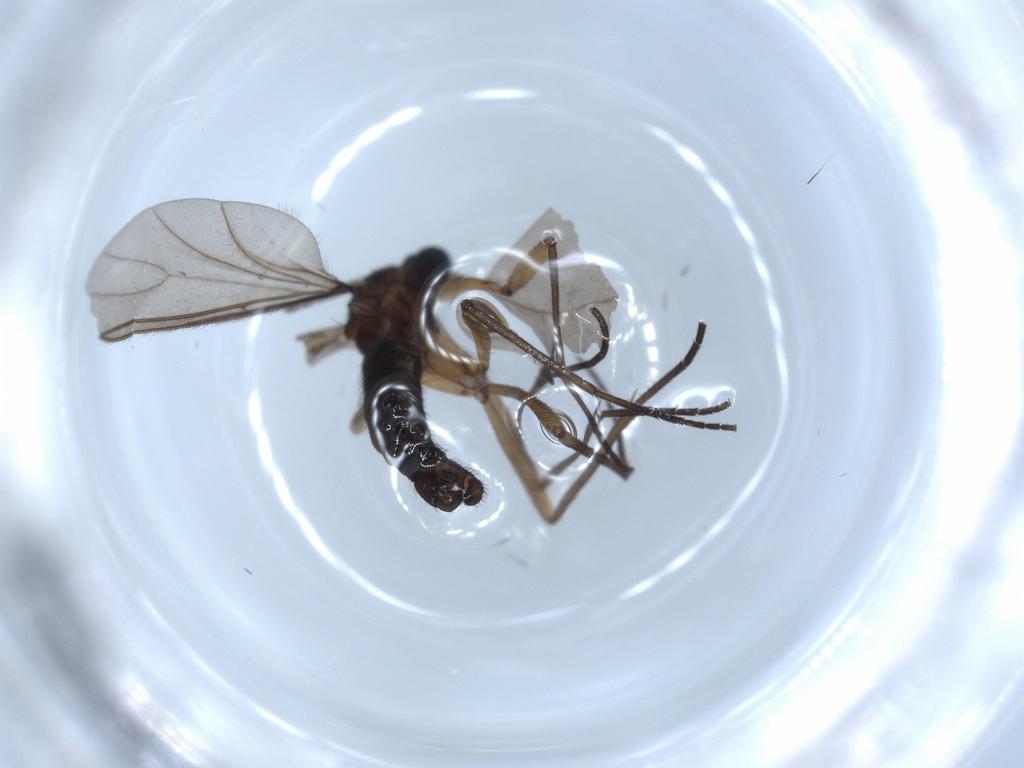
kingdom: Animalia
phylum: Arthropoda
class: Insecta
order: Diptera
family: Sciaridae
